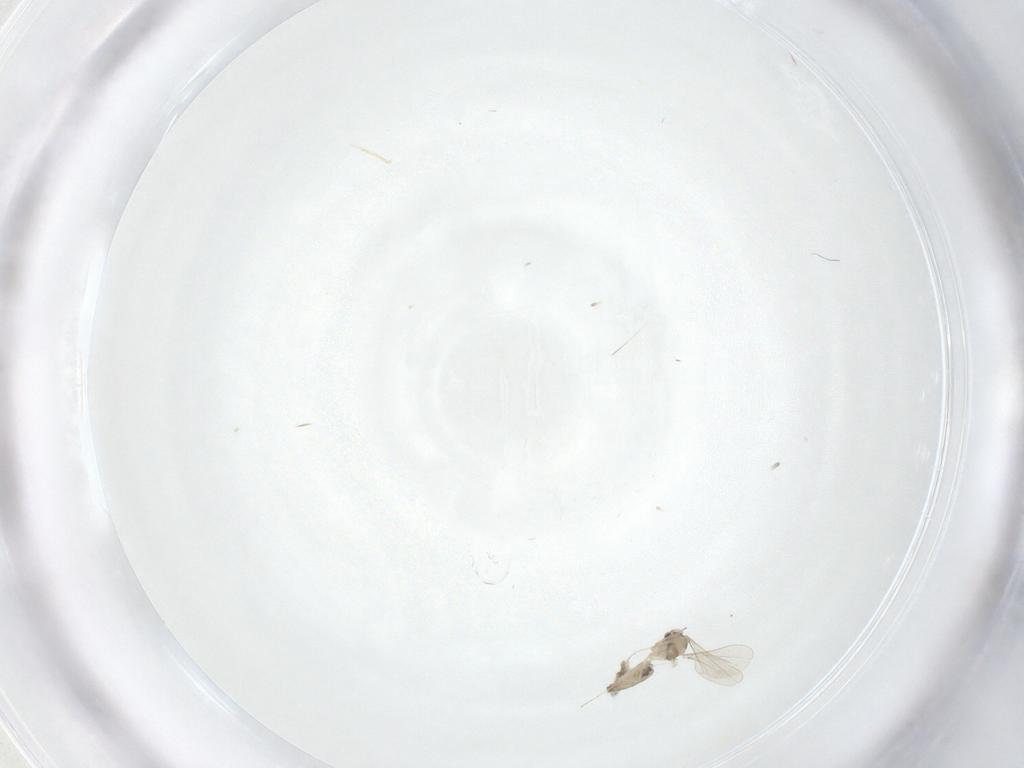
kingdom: Animalia
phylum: Arthropoda
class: Insecta
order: Diptera
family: Cecidomyiidae
